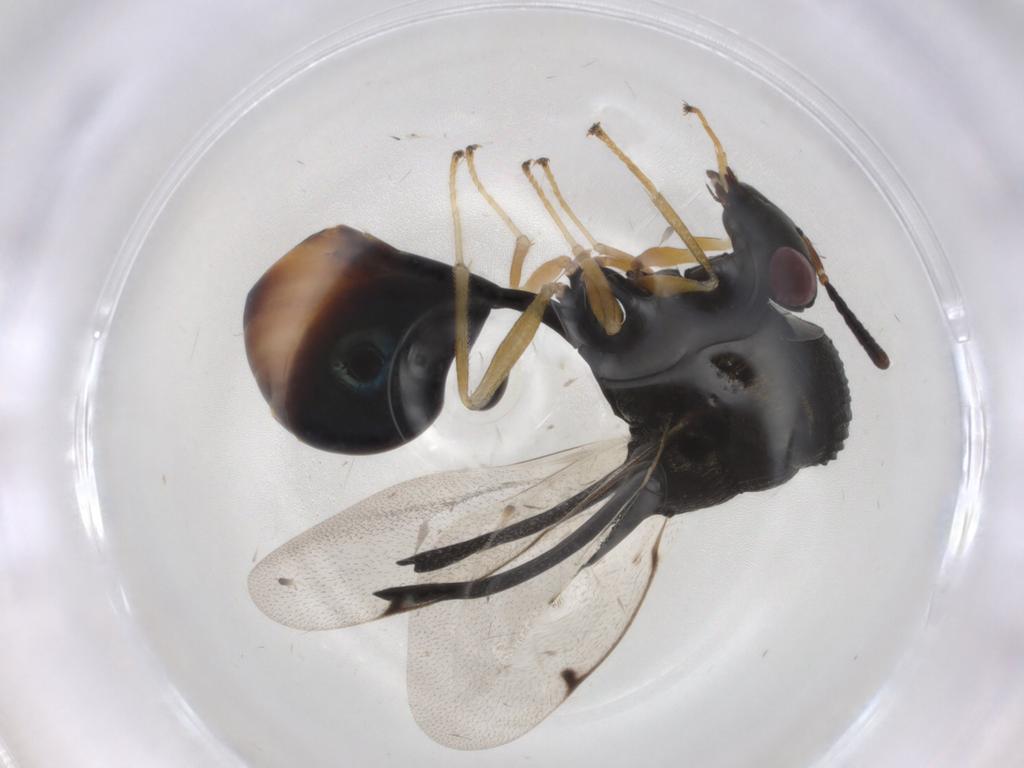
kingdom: Animalia
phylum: Arthropoda
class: Insecta
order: Hymenoptera
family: Eucharitidae
